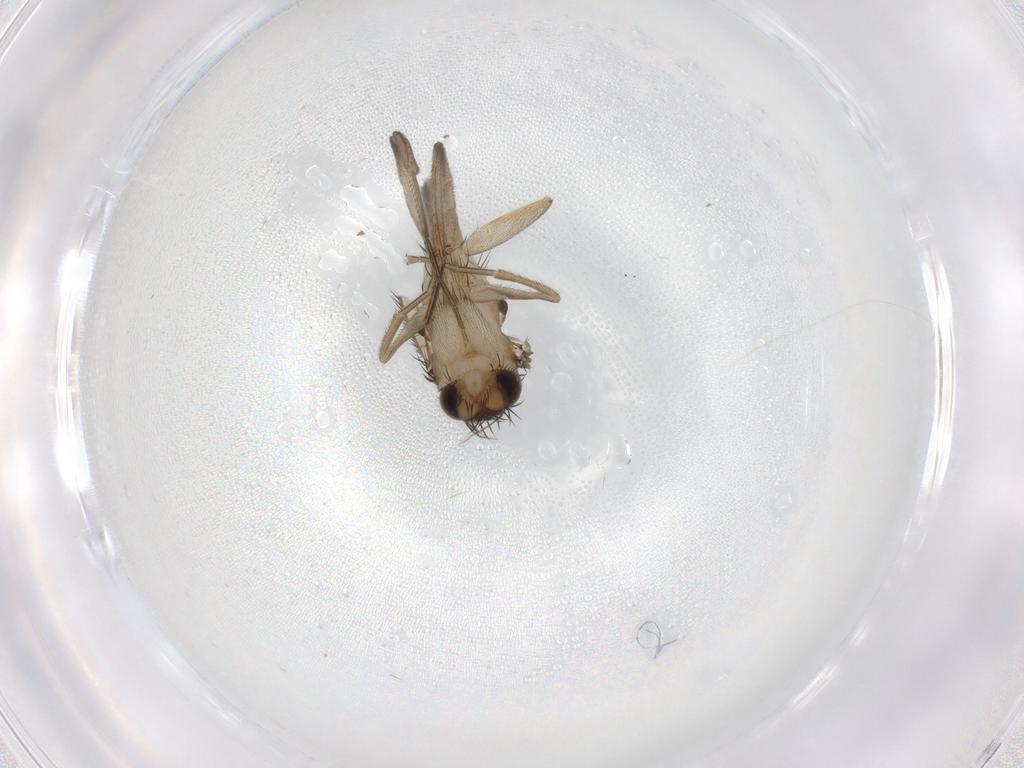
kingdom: Animalia
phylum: Arthropoda
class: Insecta
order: Diptera
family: Phoridae
